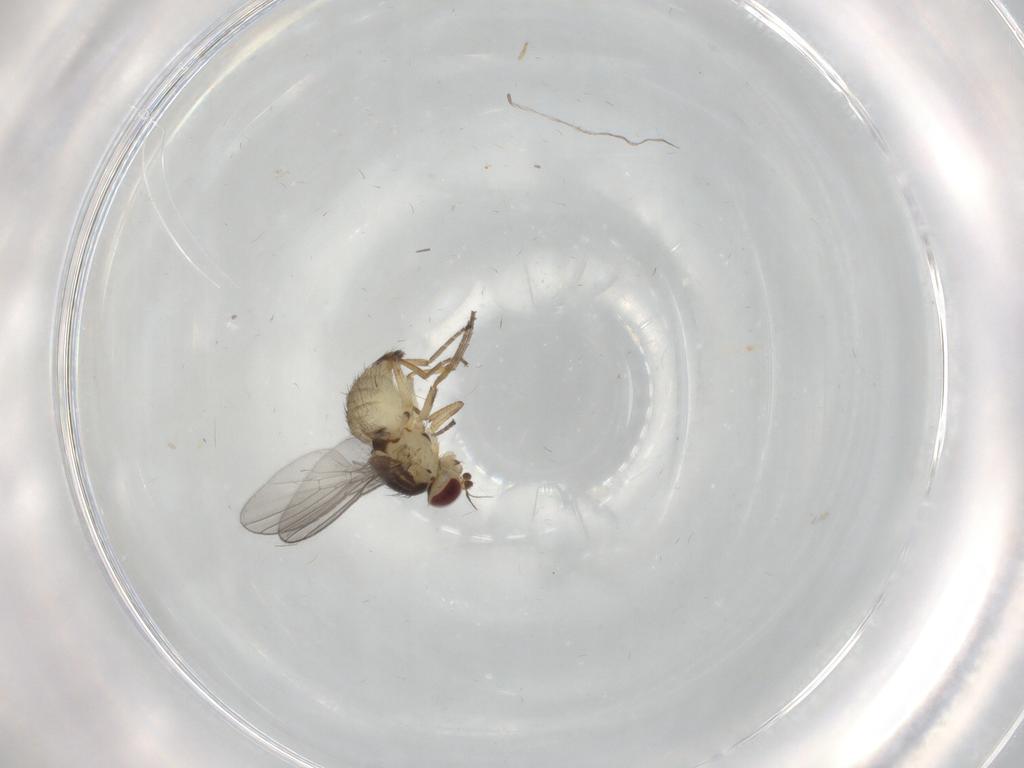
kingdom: Animalia
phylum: Arthropoda
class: Insecta
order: Diptera
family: Agromyzidae
